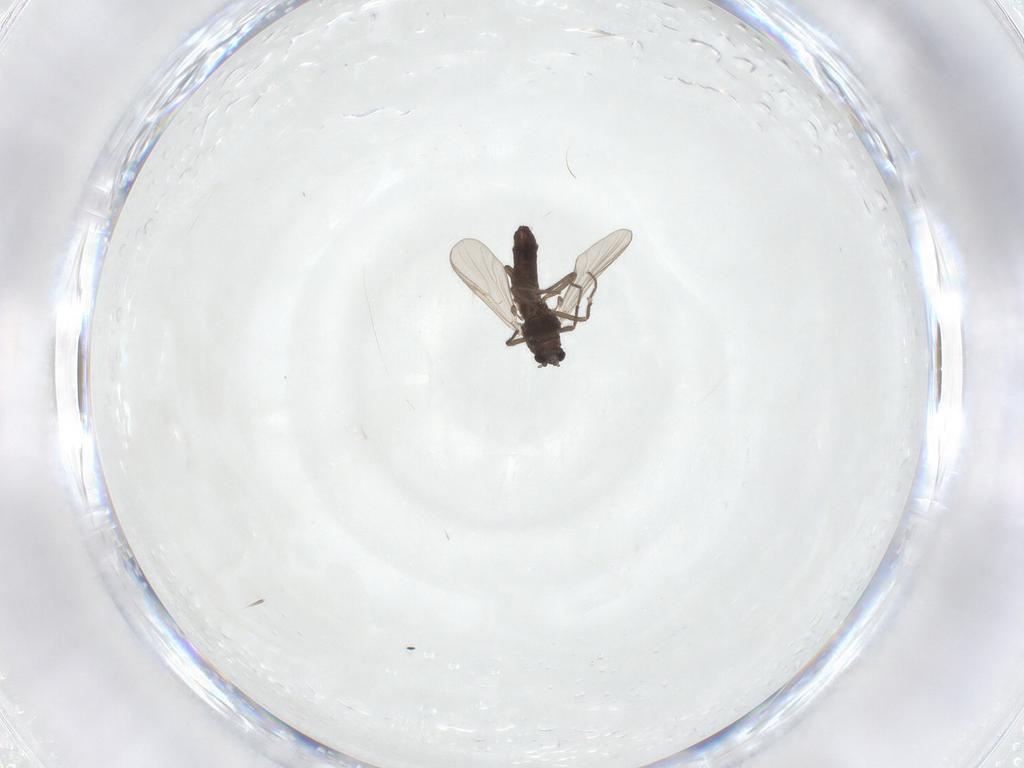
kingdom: Animalia
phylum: Arthropoda
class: Insecta
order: Diptera
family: Chironomidae
